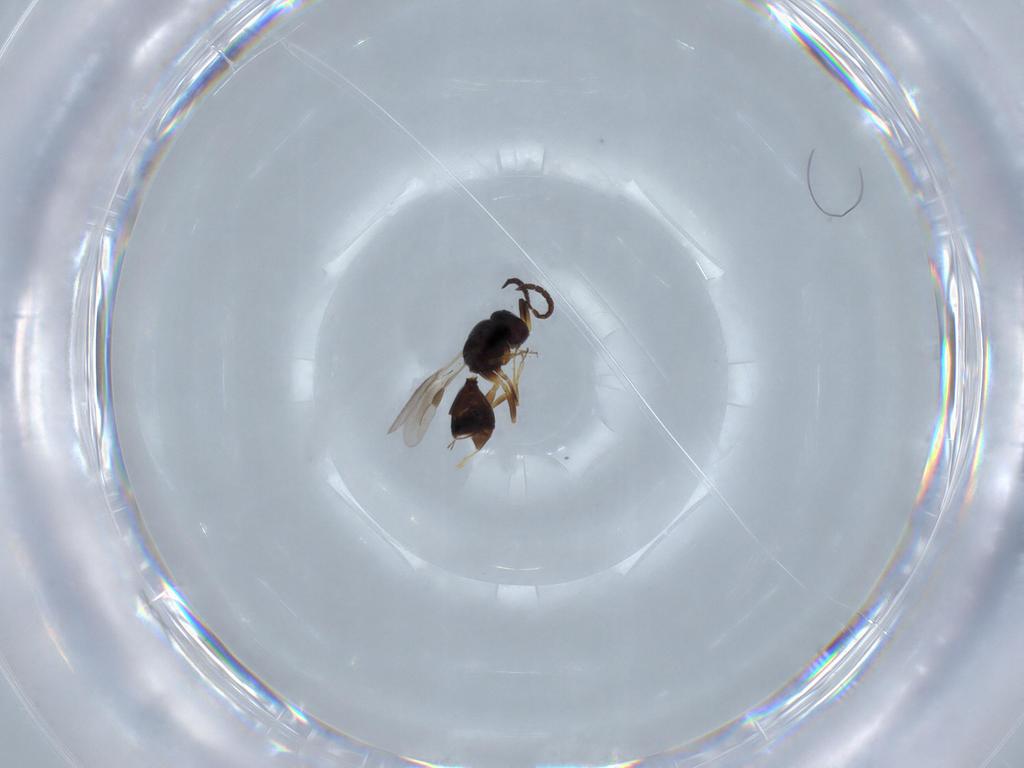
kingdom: Animalia
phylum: Arthropoda
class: Insecta
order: Hymenoptera
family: Megaspilidae
